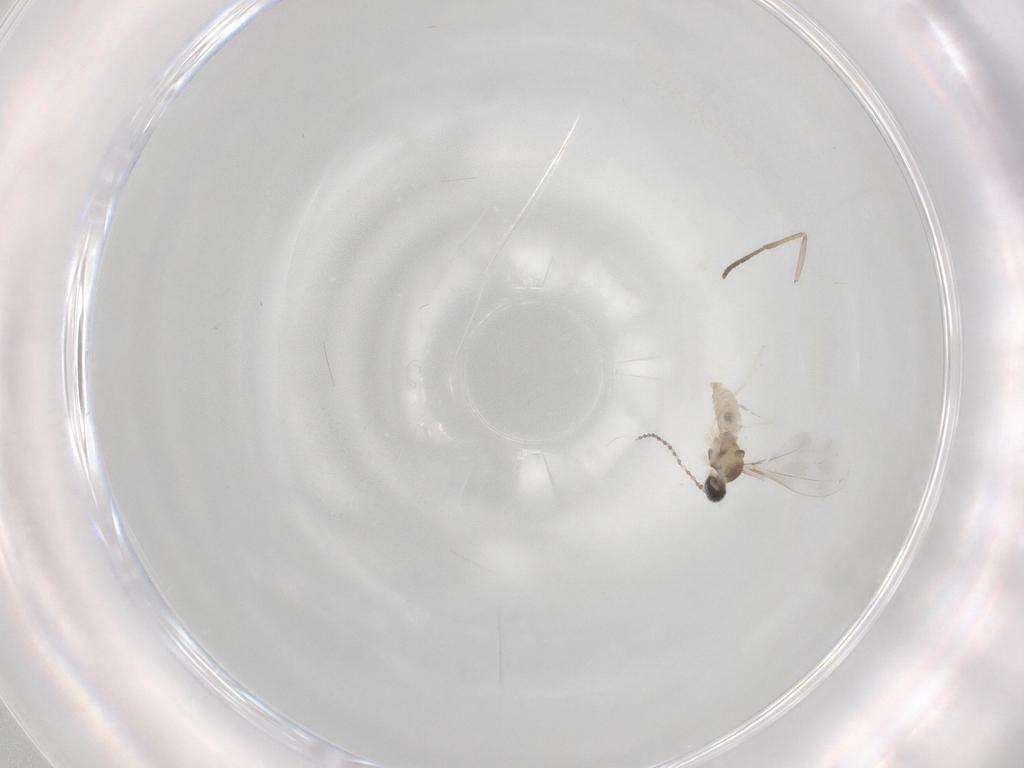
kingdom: Animalia
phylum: Arthropoda
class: Insecta
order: Diptera
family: Cecidomyiidae
